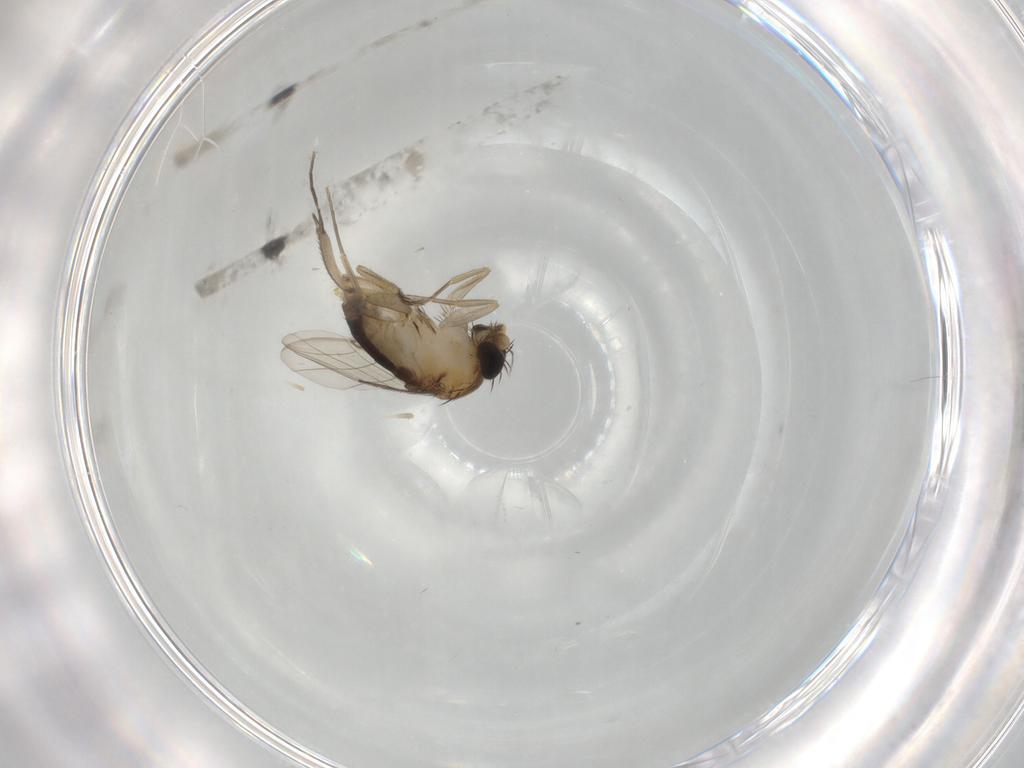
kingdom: Animalia
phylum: Arthropoda
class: Insecta
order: Diptera
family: Phoridae
